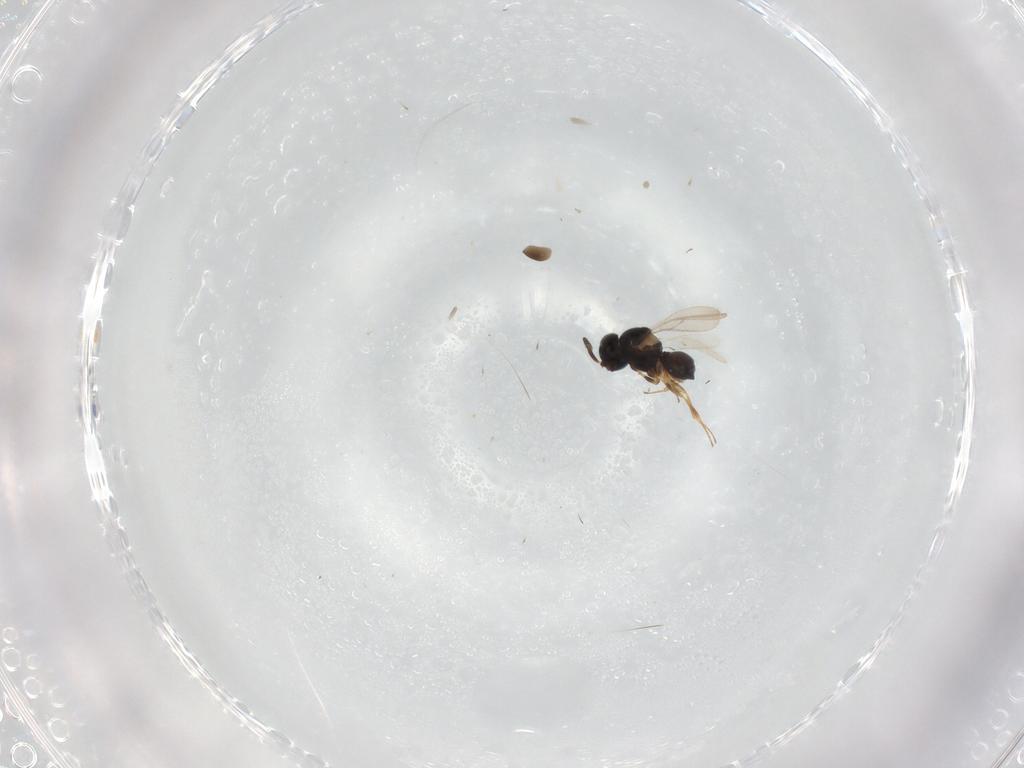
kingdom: Animalia
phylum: Arthropoda
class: Insecta
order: Hymenoptera
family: Scelionidae
